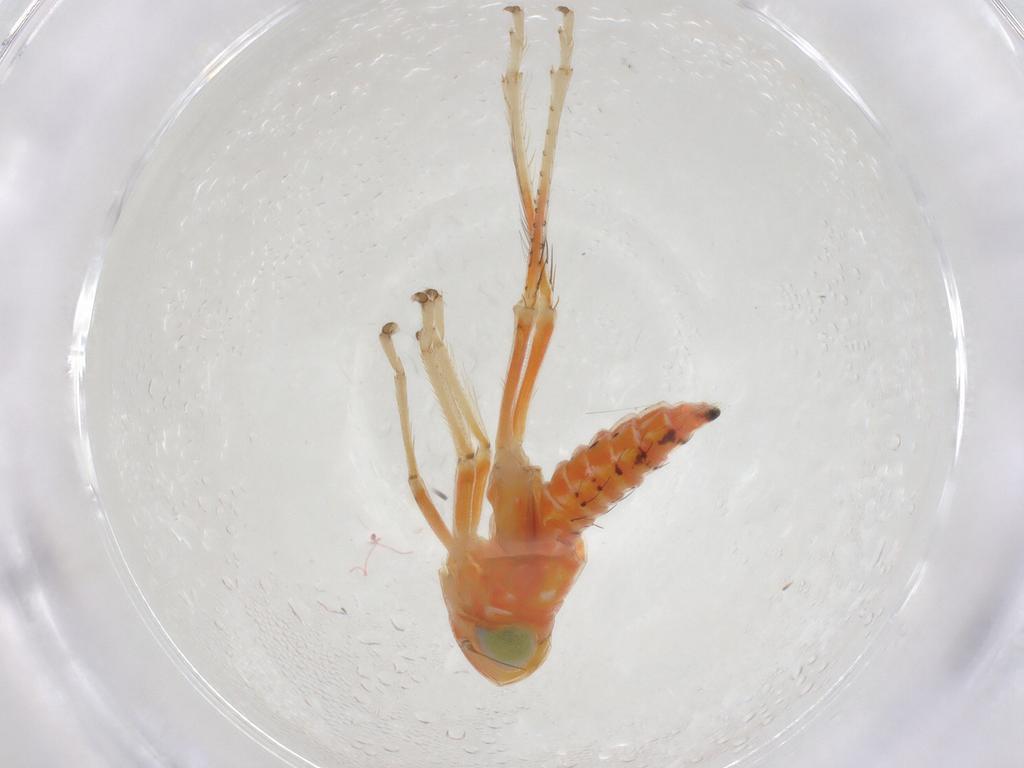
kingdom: Animalia
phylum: Arthropoda
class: Insecta
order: Hemiptera
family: Cicadellidae
